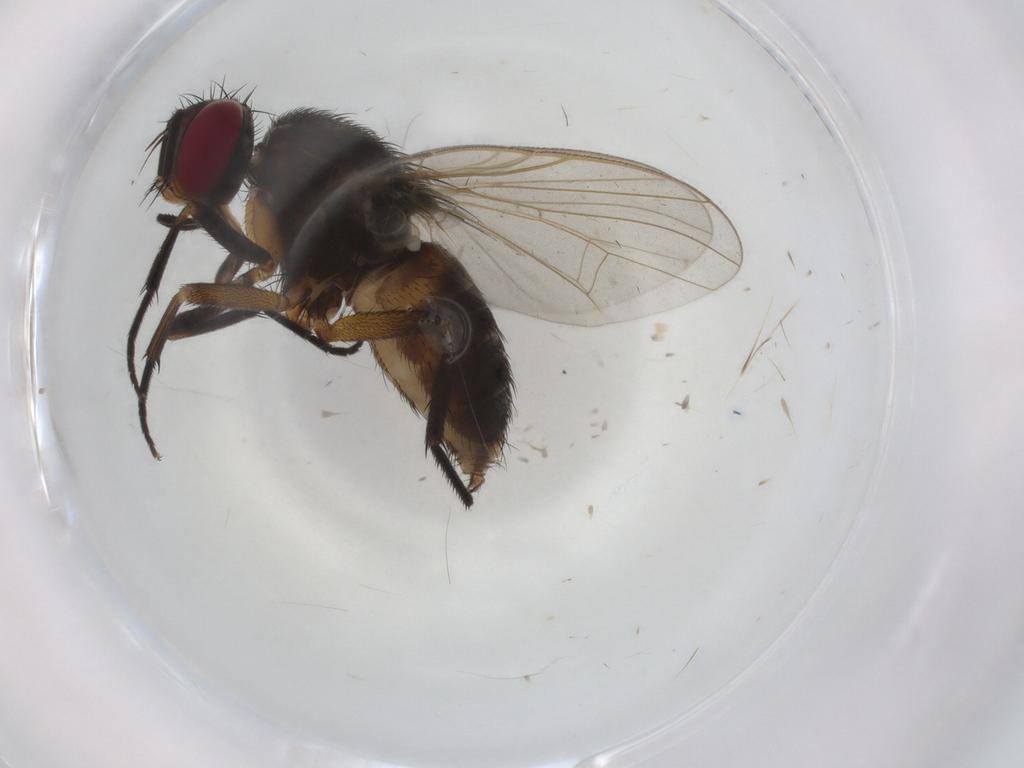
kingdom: Animalia
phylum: Arthropoda
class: Insecta
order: Diptera
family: Muscidae
